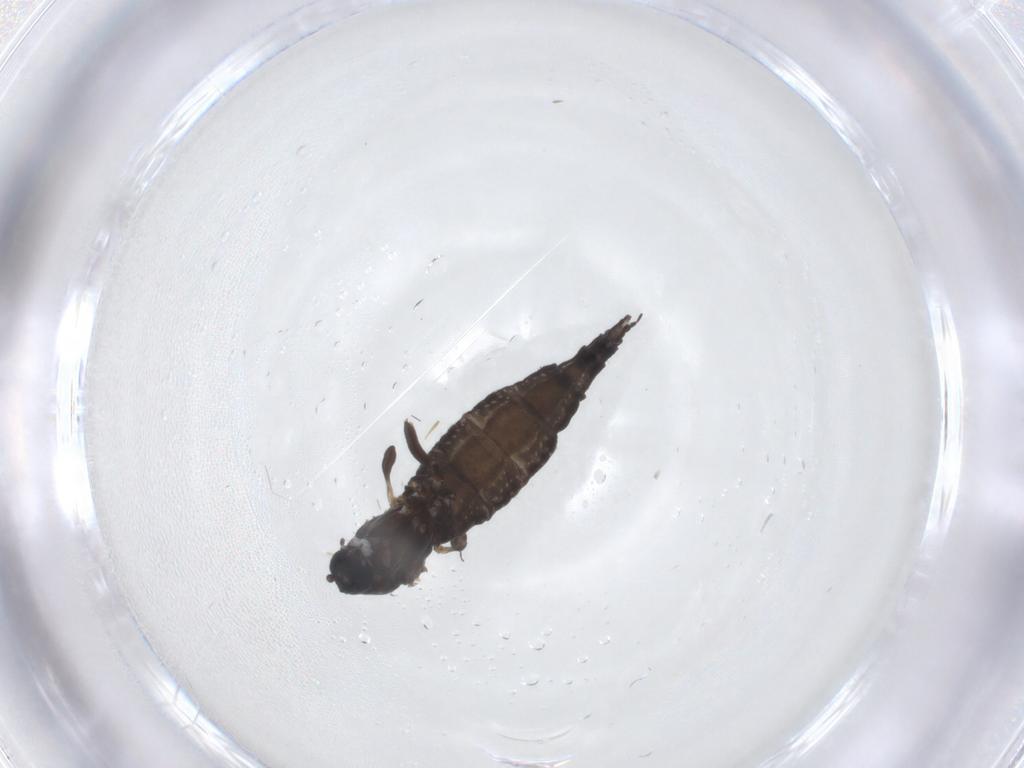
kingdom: Animalia
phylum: Arthropoda
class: Insecta
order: Diptera
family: Sciaridae
